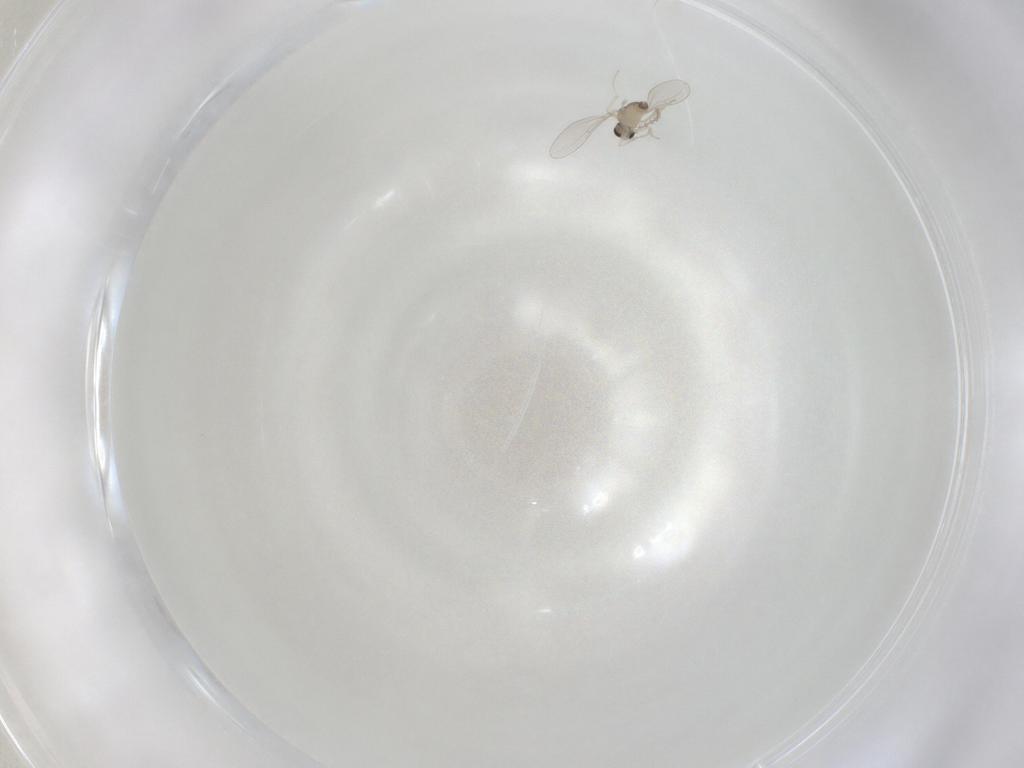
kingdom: Animalia
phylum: Arthropoda
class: Insecta
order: Diptera
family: Cecidomyiidae
